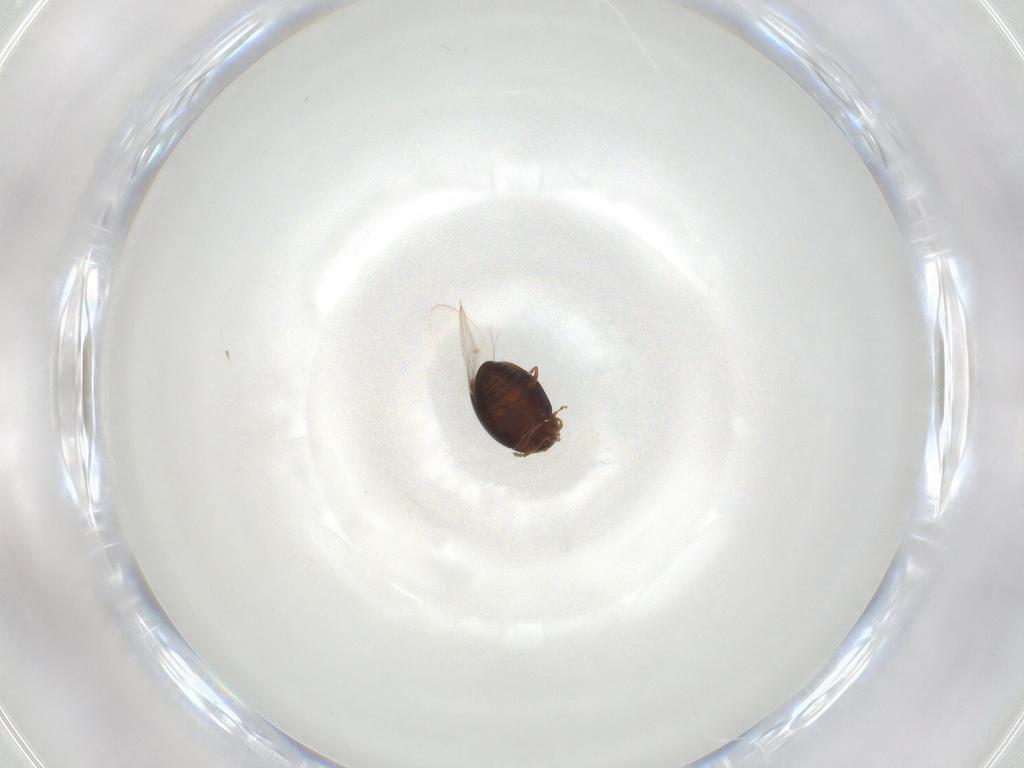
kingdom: Animalia
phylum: Arthropoda
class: Insecta
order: Coleoptera
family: Corylophidae
